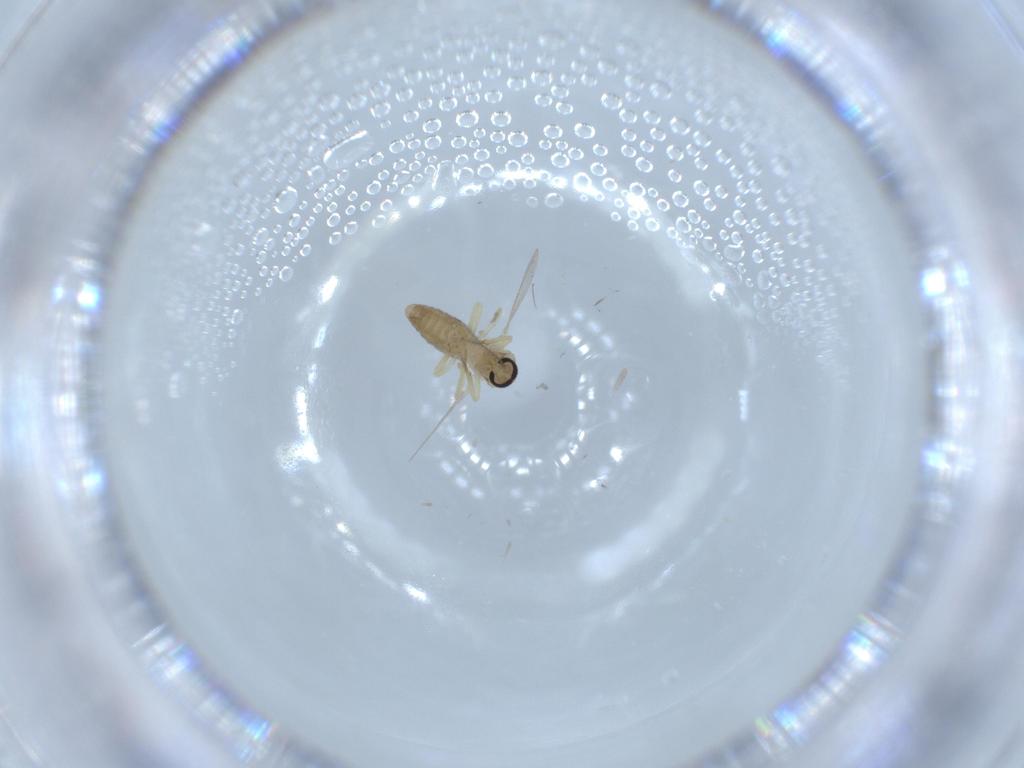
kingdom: Animalia
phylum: Arthropoda
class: Insecta
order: Diptera
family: Ceratopogonidae
